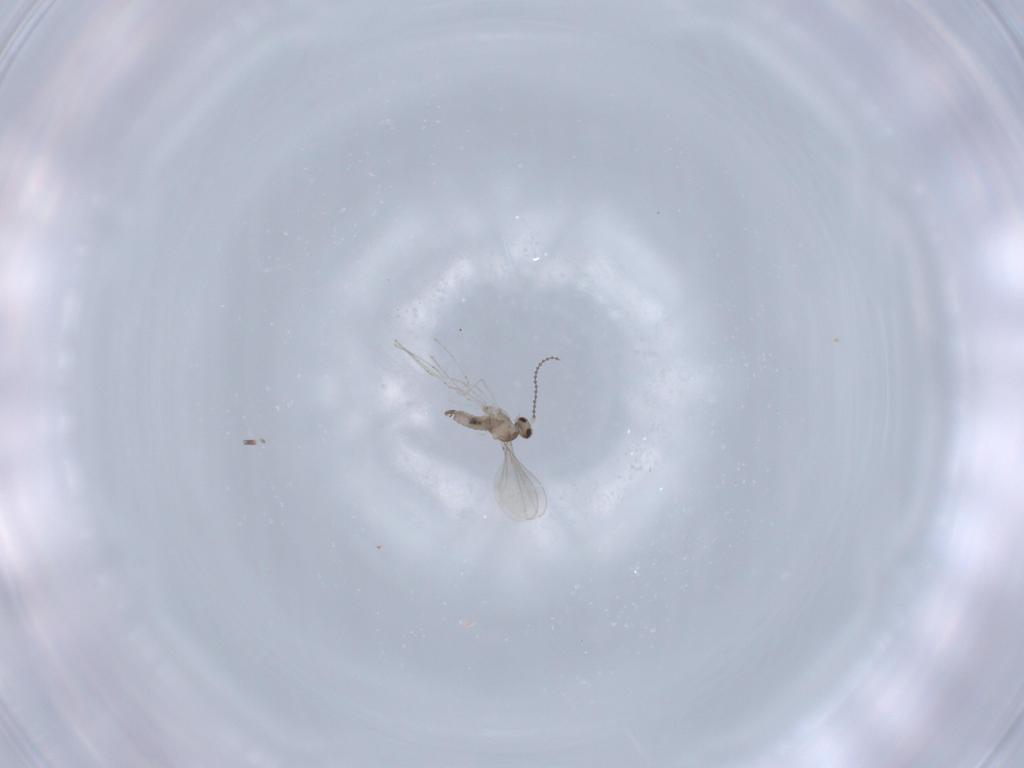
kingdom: Animalia
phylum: Arthropoda
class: Insecta
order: Diptera
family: Cecidomyiidae
